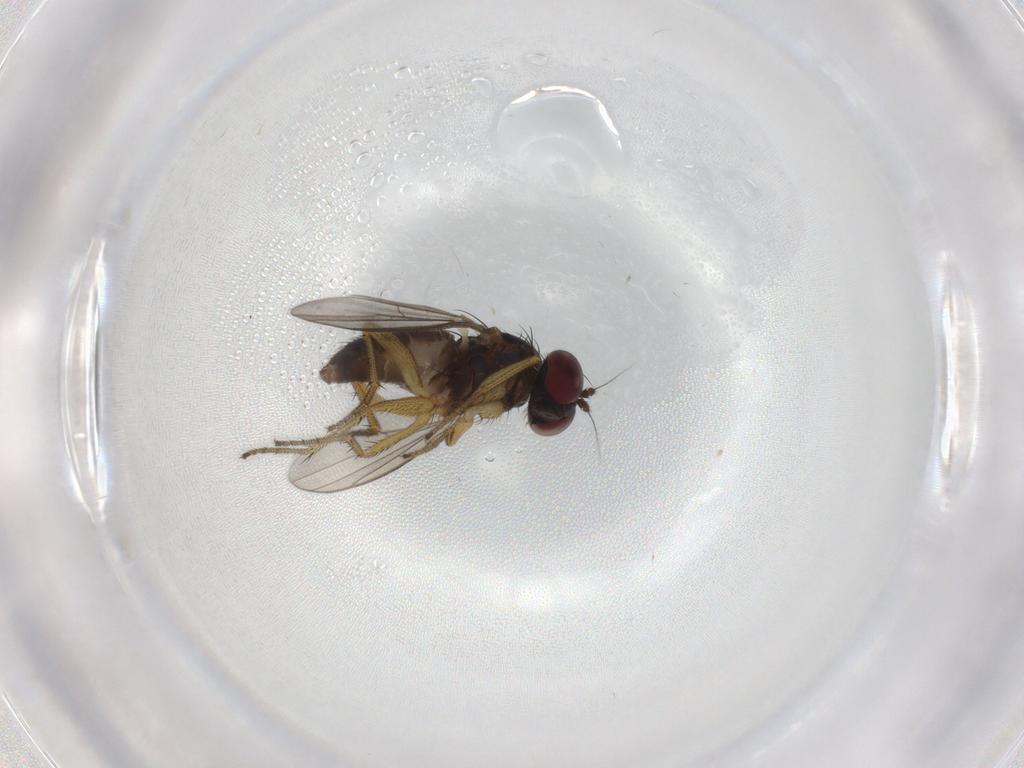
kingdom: Animalia
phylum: Arthropoda
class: Insecta
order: Diptera
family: Dolichopodidae
